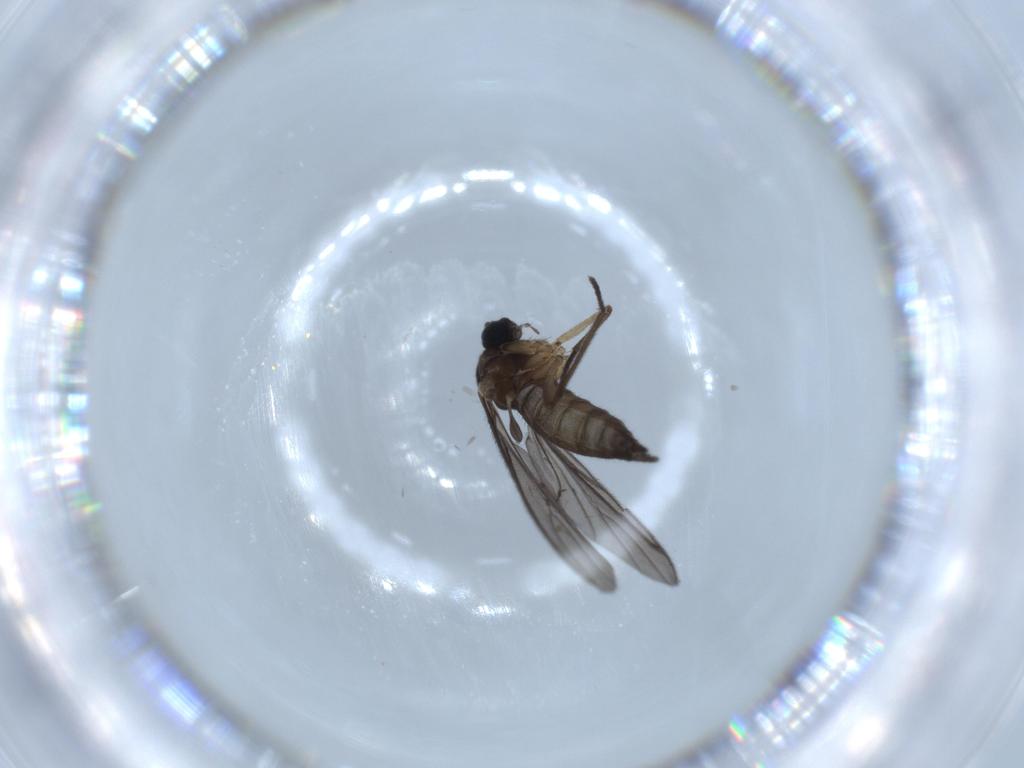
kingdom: Animalia
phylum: Arthropoda
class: Insecta
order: Diptera
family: Sciaridae
